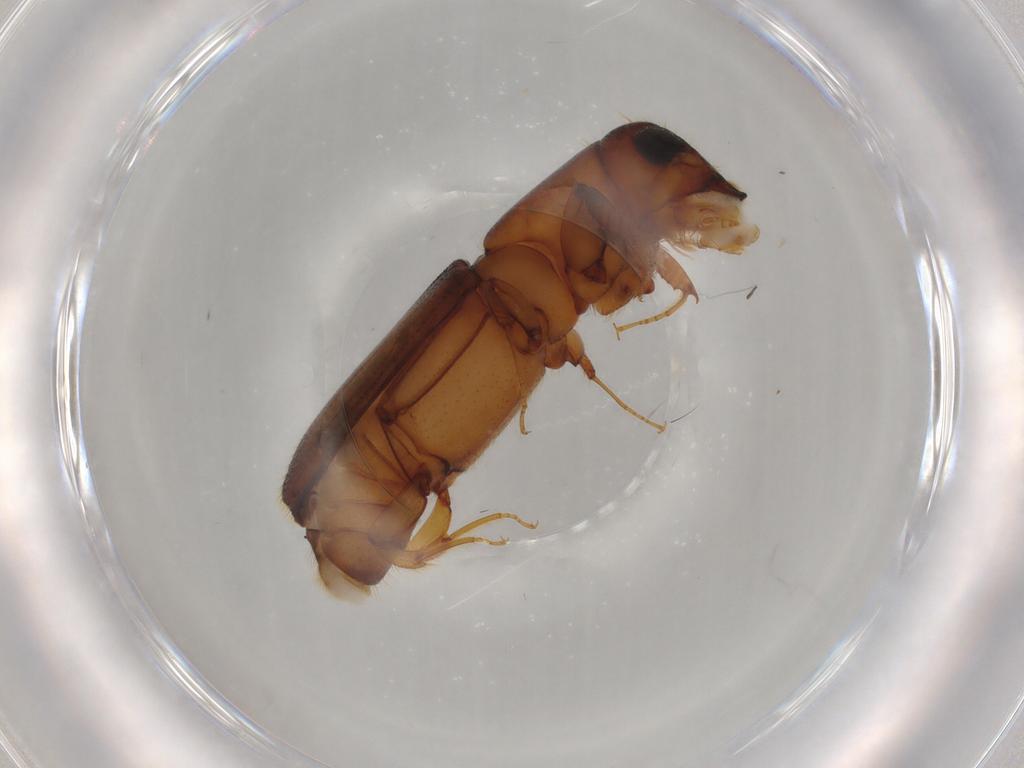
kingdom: Animalia
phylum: Arthropoda
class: Insecta
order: Coleoptera
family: Curculionidae
